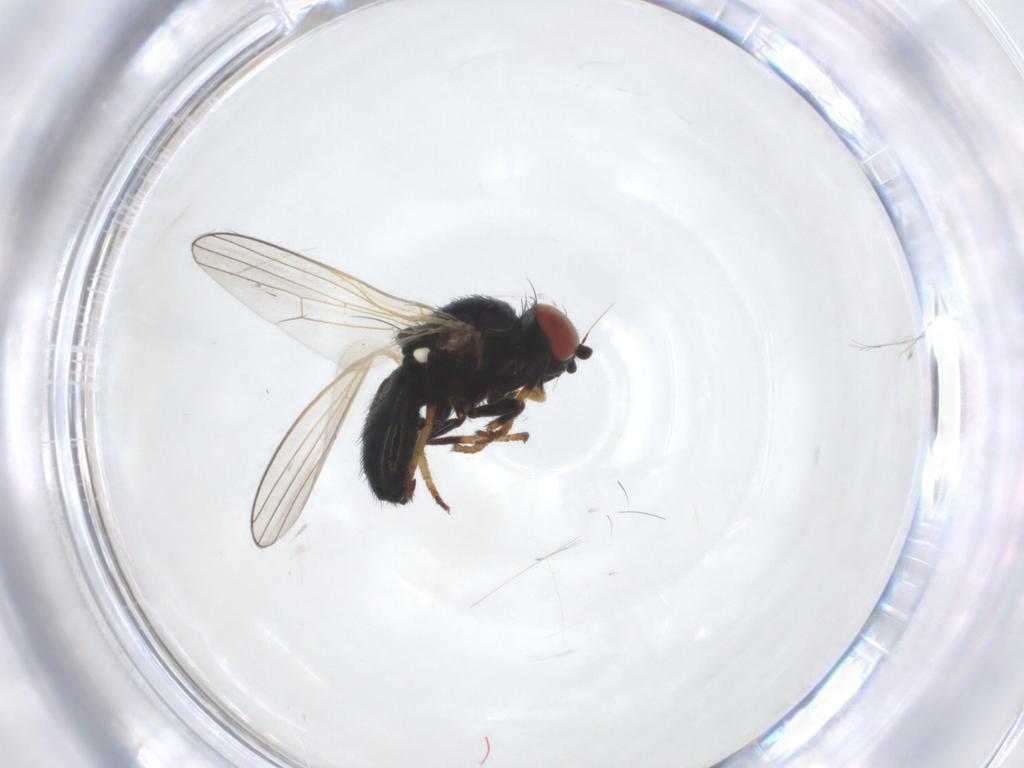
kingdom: Animalia
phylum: Arthropoda
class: Insecta
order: Diptera
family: Chamaemyiidae
